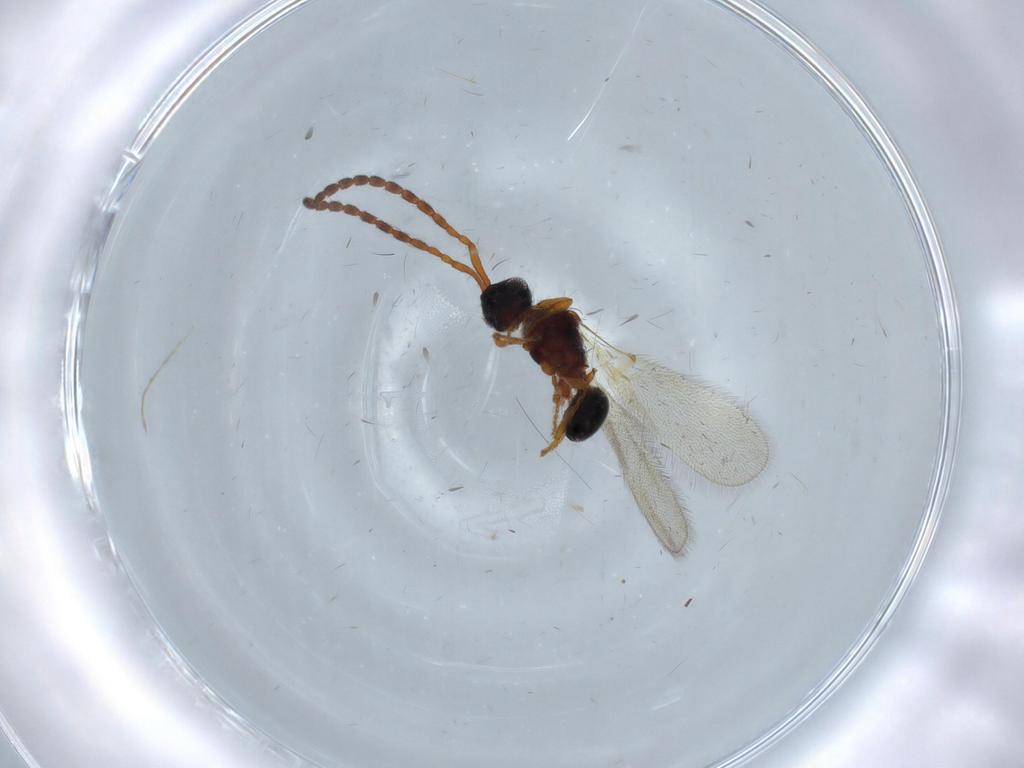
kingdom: Animalia
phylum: Arthropoda
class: Insecta
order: Hymenoptera
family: Diapriidae
